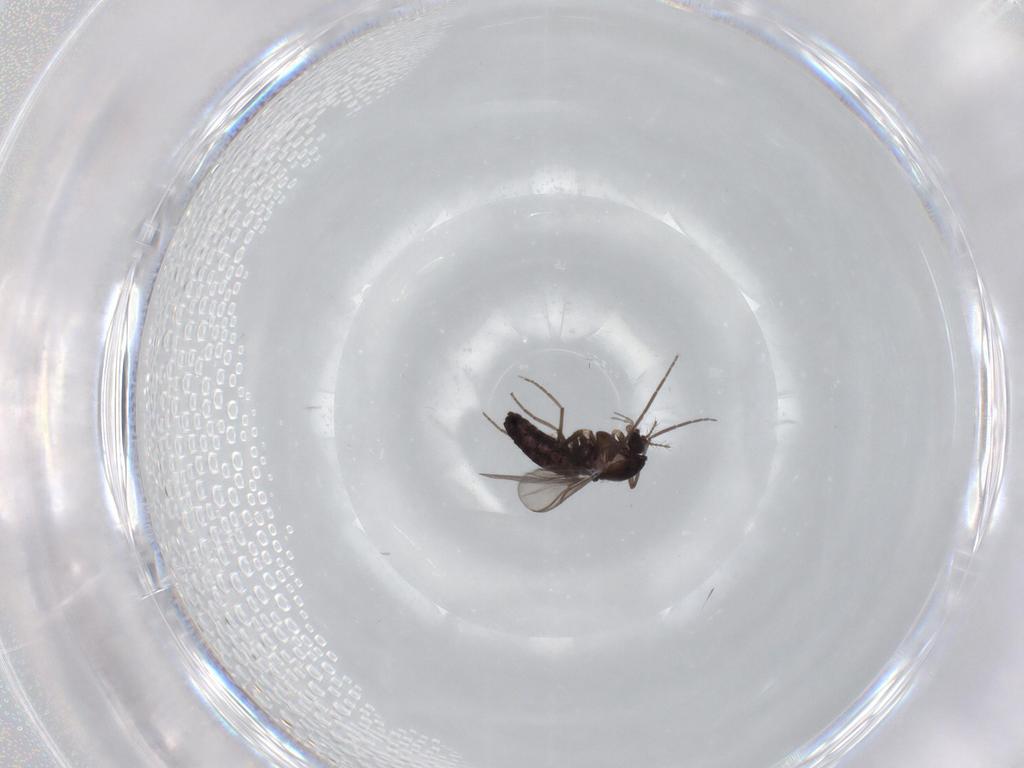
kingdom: Animalia
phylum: Arthropoda
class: Insecta
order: Diptera
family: Chironomidae
